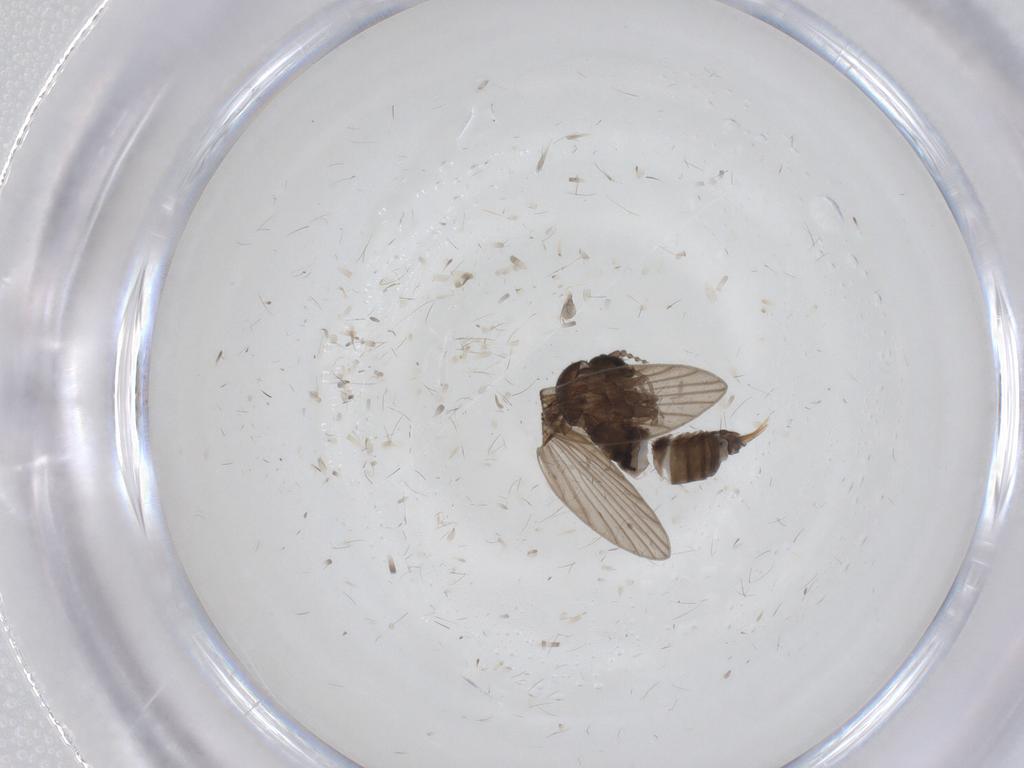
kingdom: Animalia
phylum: Arthropoda
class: Insecta
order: Diptera
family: Psychodidae
